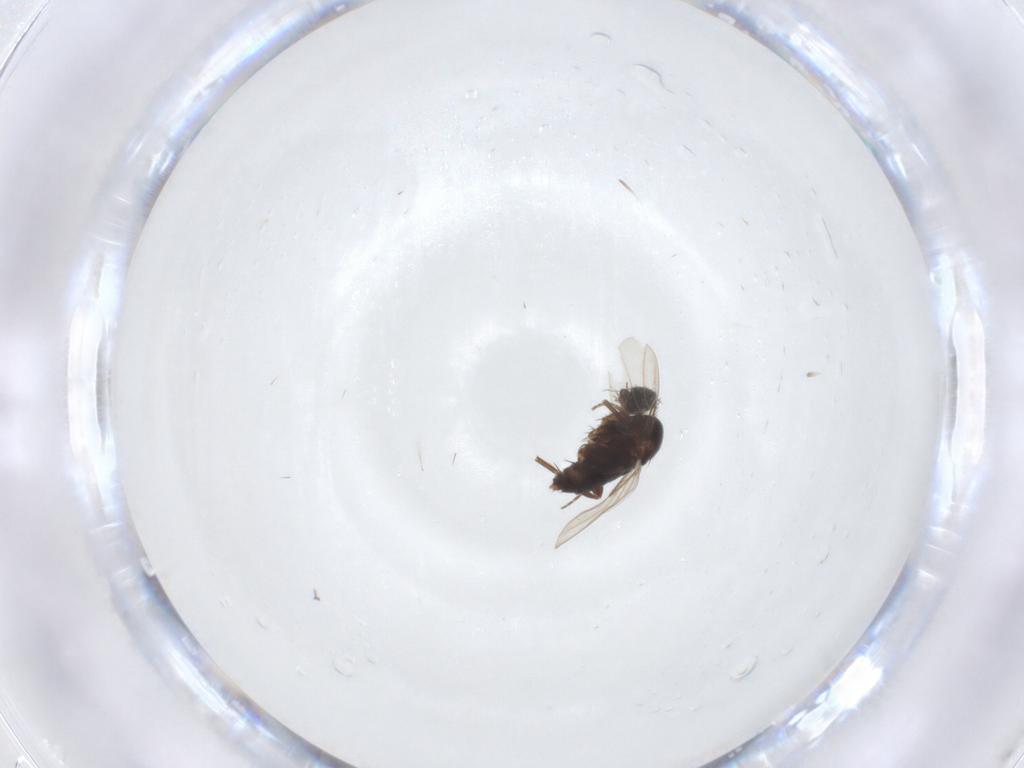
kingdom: Animalia
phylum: Arthropoda
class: Insecta
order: Diptera
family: Phoridae
